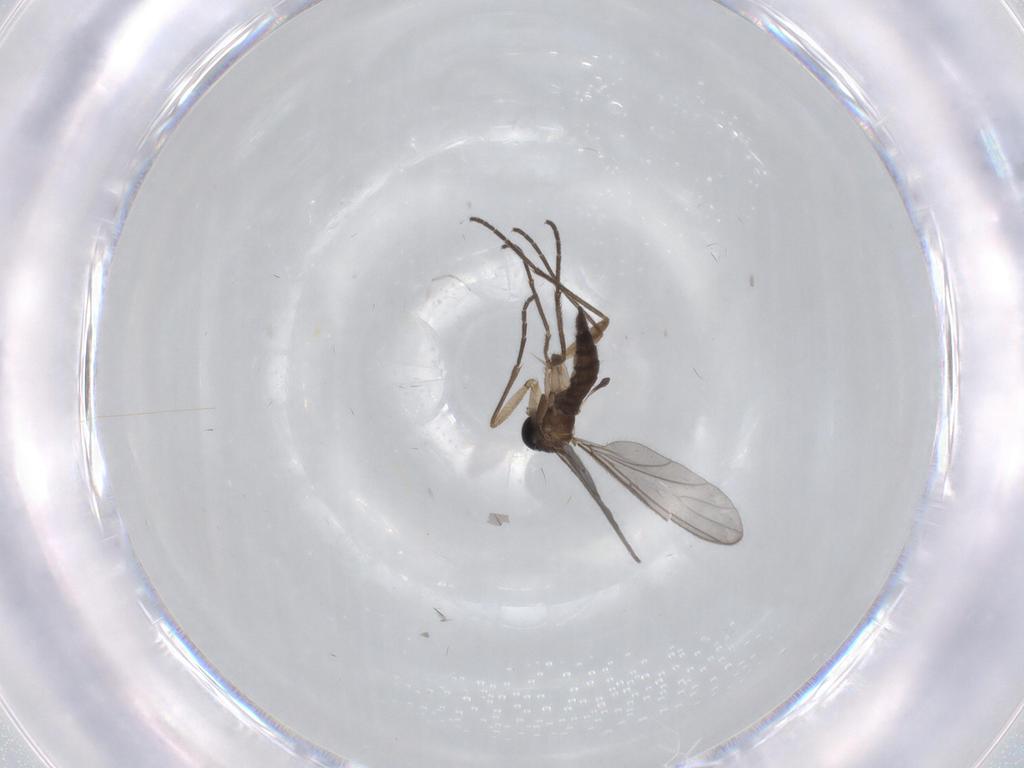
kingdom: Animalia
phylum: Arthropoda
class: Insecta
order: Diptera
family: Sciaridae
